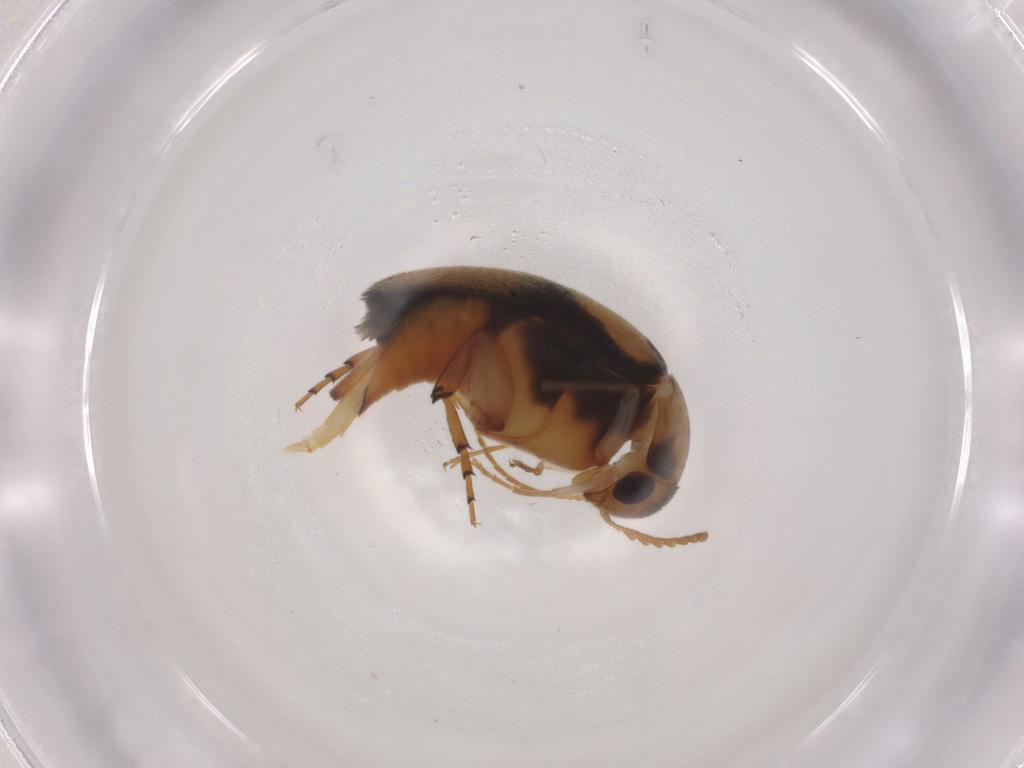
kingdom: Animalia
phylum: Arthropoda
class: Insecta
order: Coleoptera
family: Mordellidae
